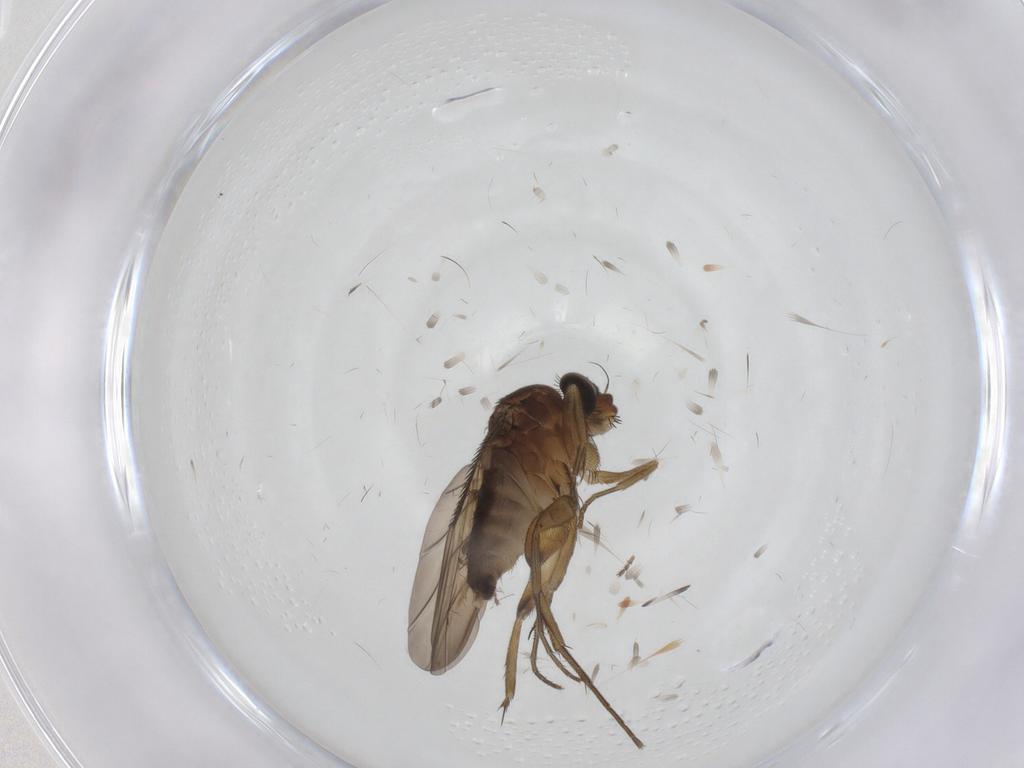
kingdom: Animalia
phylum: Arthropoda
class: Insecta
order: Diptera
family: Phoridae
